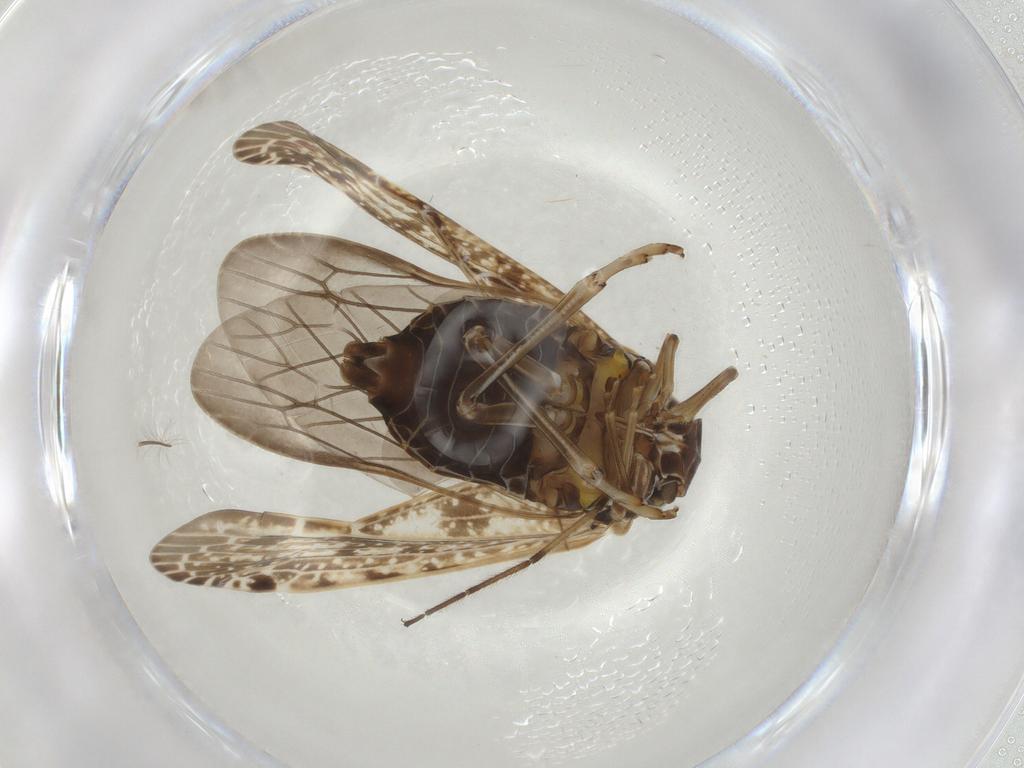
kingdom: Animalia
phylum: Arthropoda
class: Insecta
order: Hemiptera
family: Achilidae
